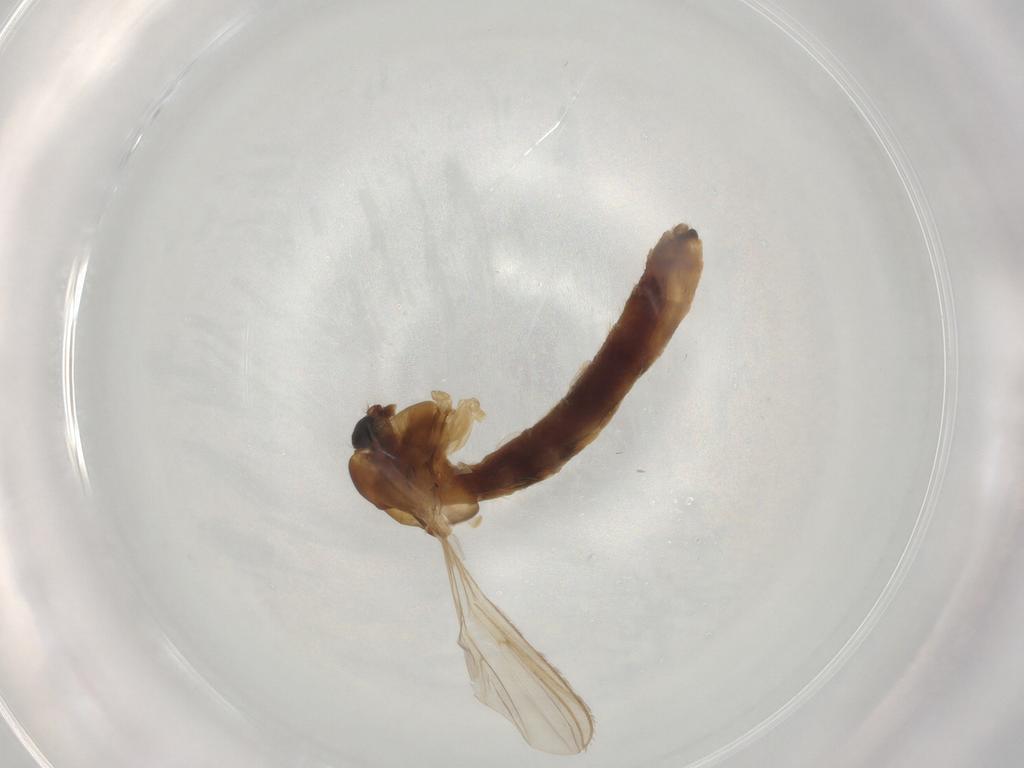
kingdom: Animalia
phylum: Arthropoda
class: Insecta
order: Diptera
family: Chironomidae
